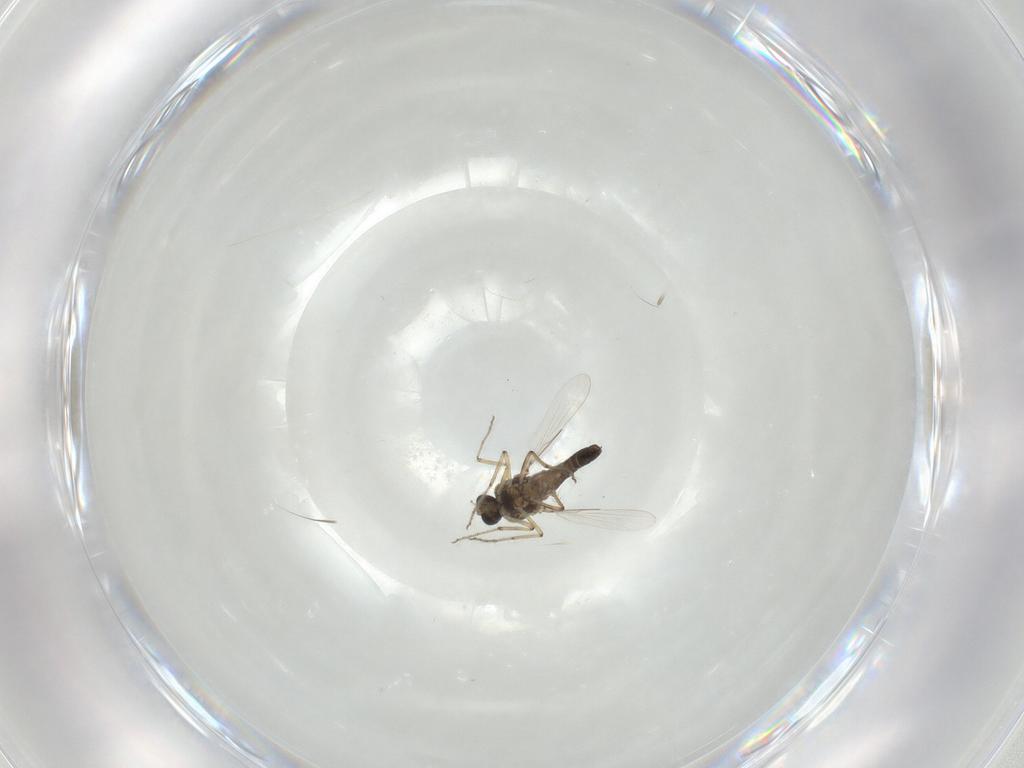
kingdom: Animalia
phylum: Arthropoda
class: Insecta
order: Diptera
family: Ceratopogonidae
